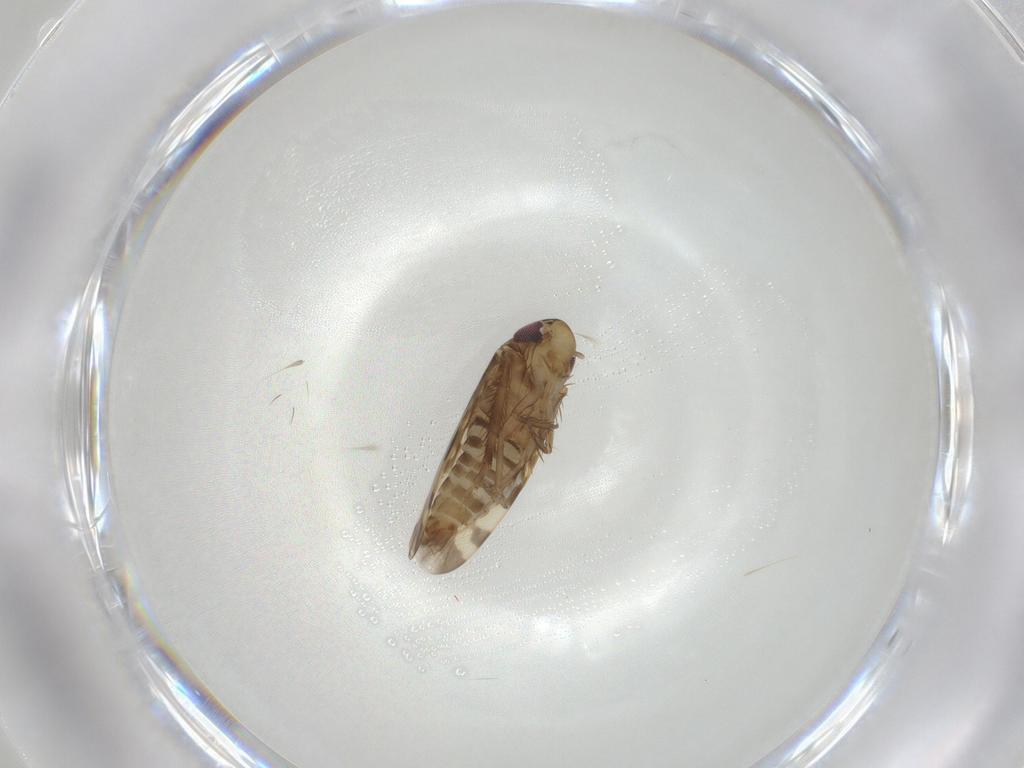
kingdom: Animalia
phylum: Arthropoda
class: Insecta
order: Hemiptera
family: Cicadellidae
